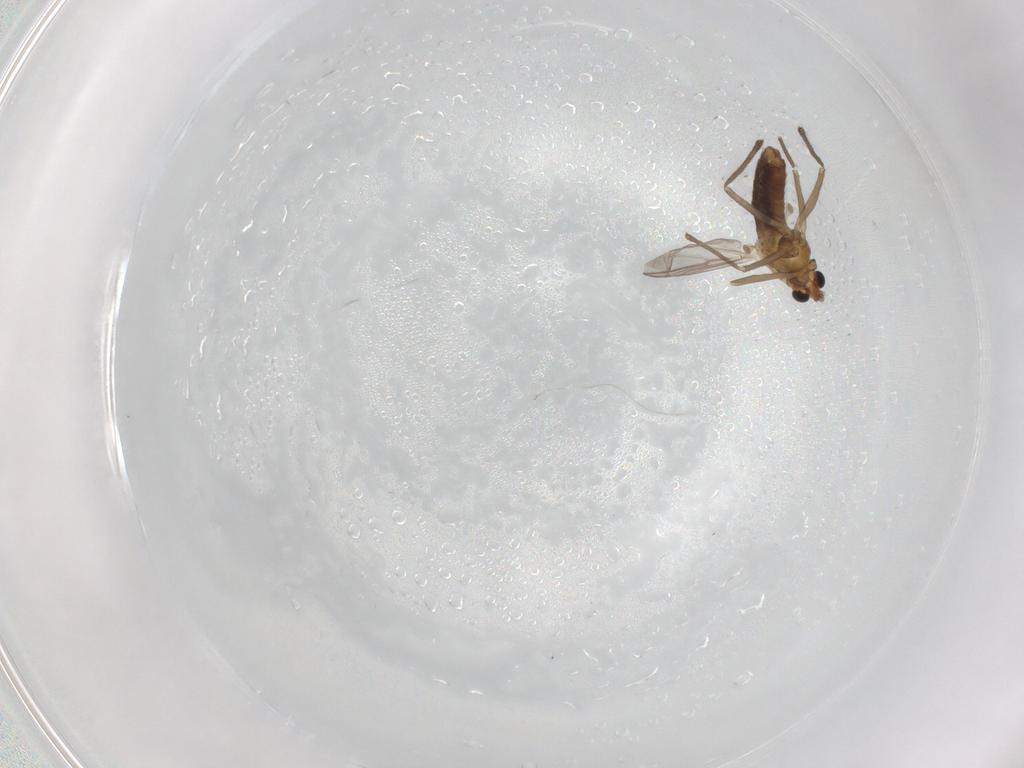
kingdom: Animalia
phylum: Arthropoda
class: Insecta
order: Diptera
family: Chironomidae
